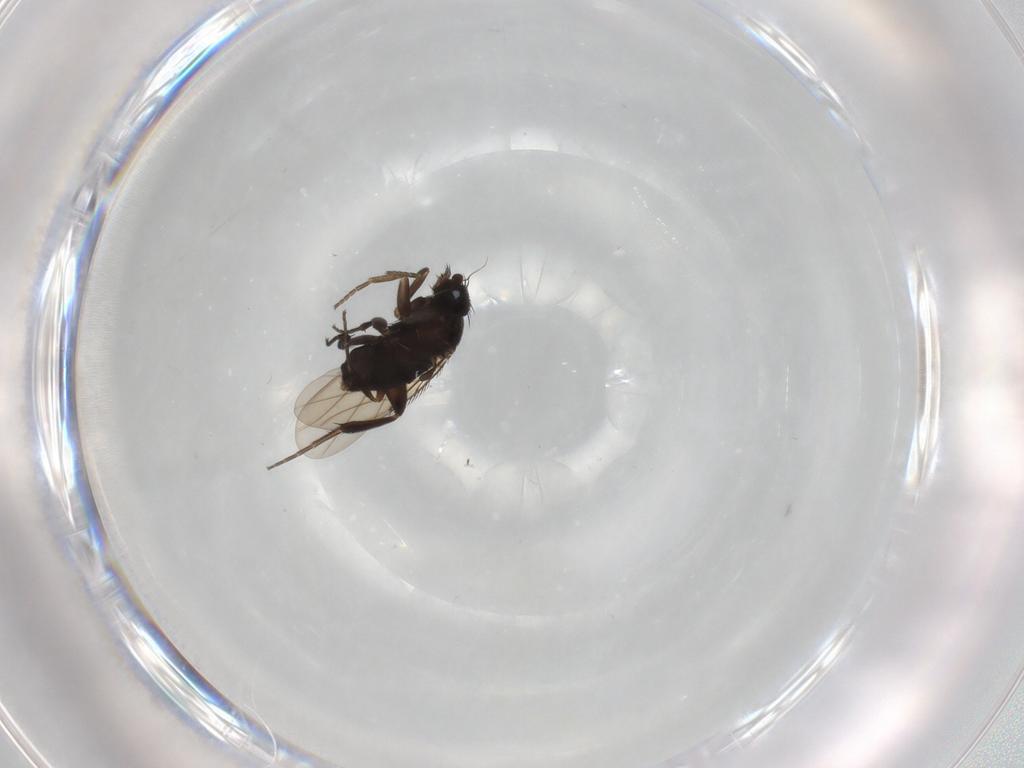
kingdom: Animalia
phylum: Arthropoda
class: Insecta
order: Diptera
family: Phoridae
